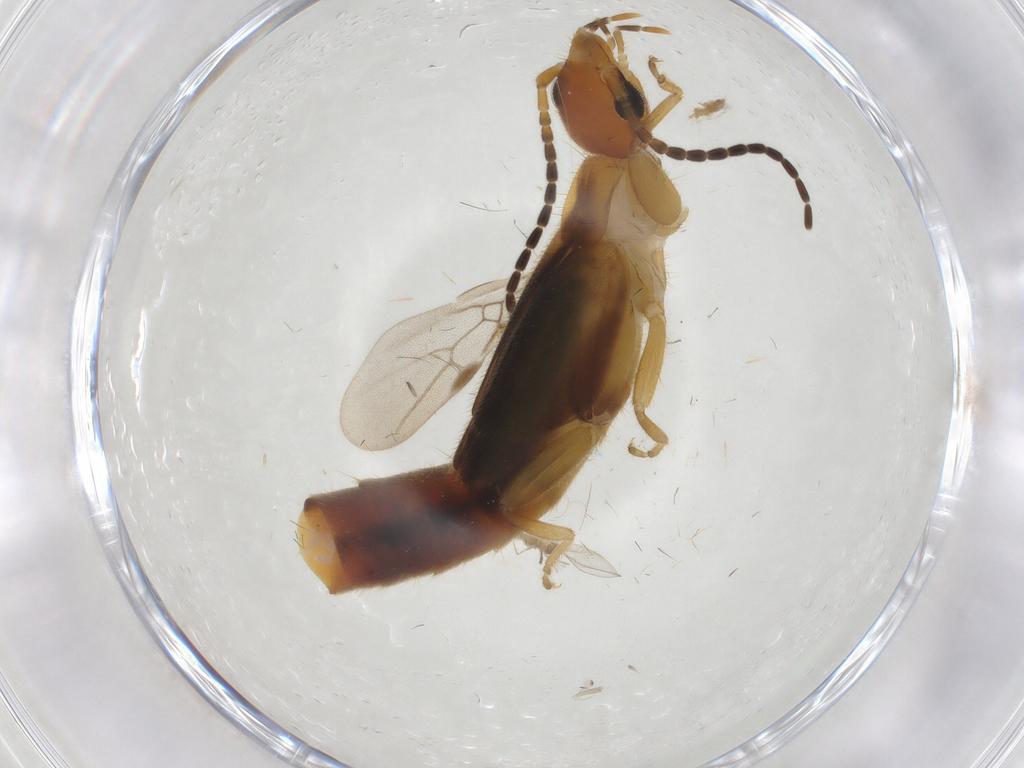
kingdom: Animalia
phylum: Arthropoda
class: Insecta
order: Dermaptera
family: Forficulidae
